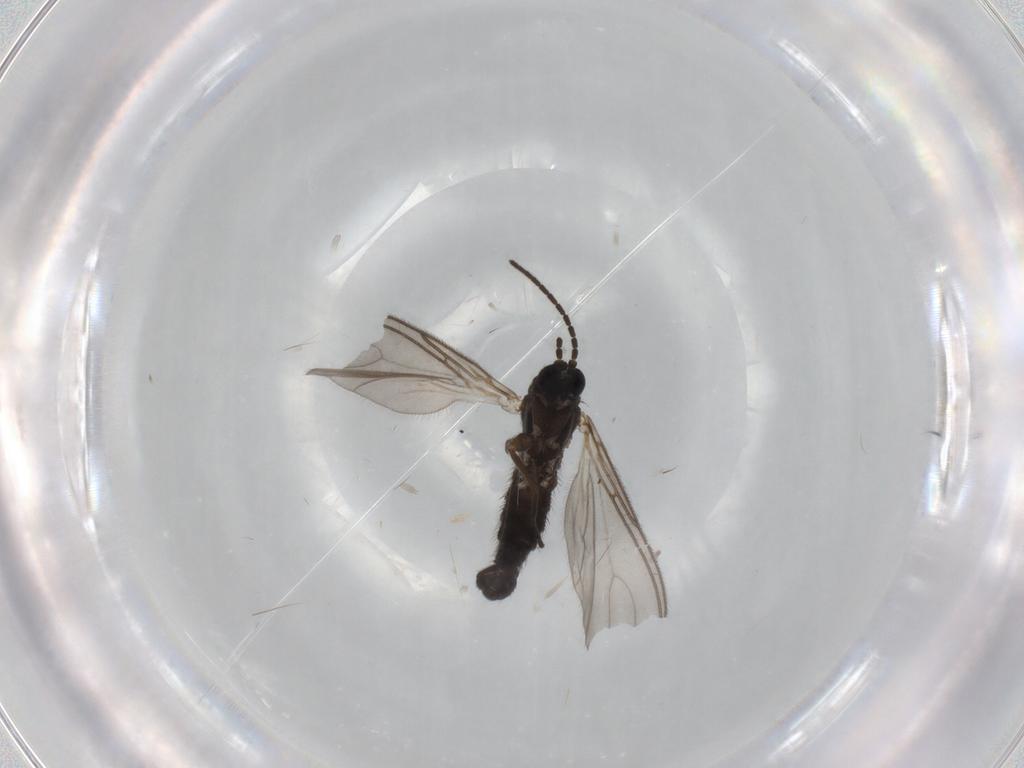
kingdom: Animalia
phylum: Arthropoda
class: Insecta
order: Diptera
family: Sciaridae
